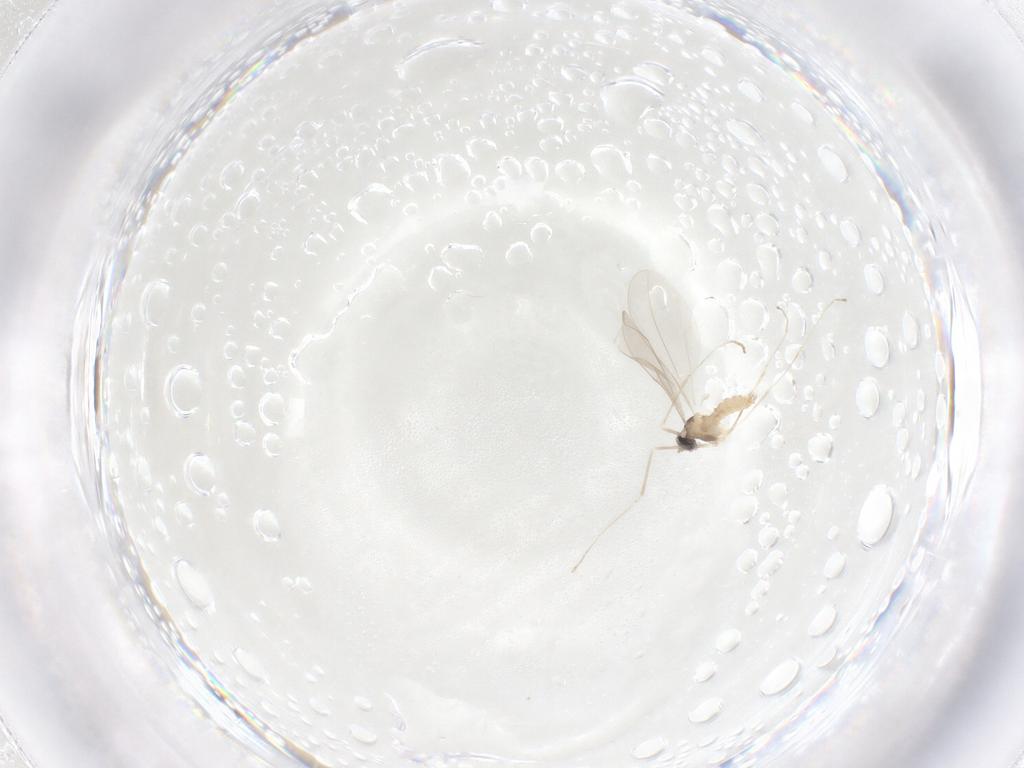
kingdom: Animalia
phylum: Arthropoda
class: Insecta
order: Diptera
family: Cecidomyiidae
